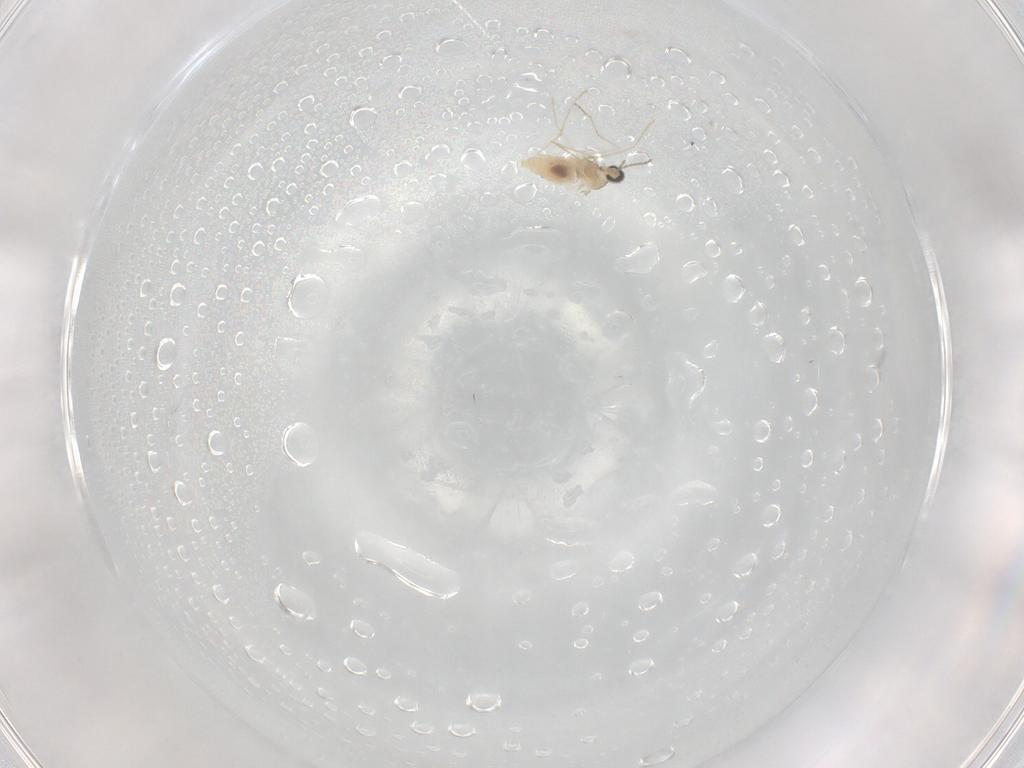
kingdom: Animalia
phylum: Arthropoda
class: Insecta
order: Diptera
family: Cecidomyiidae
